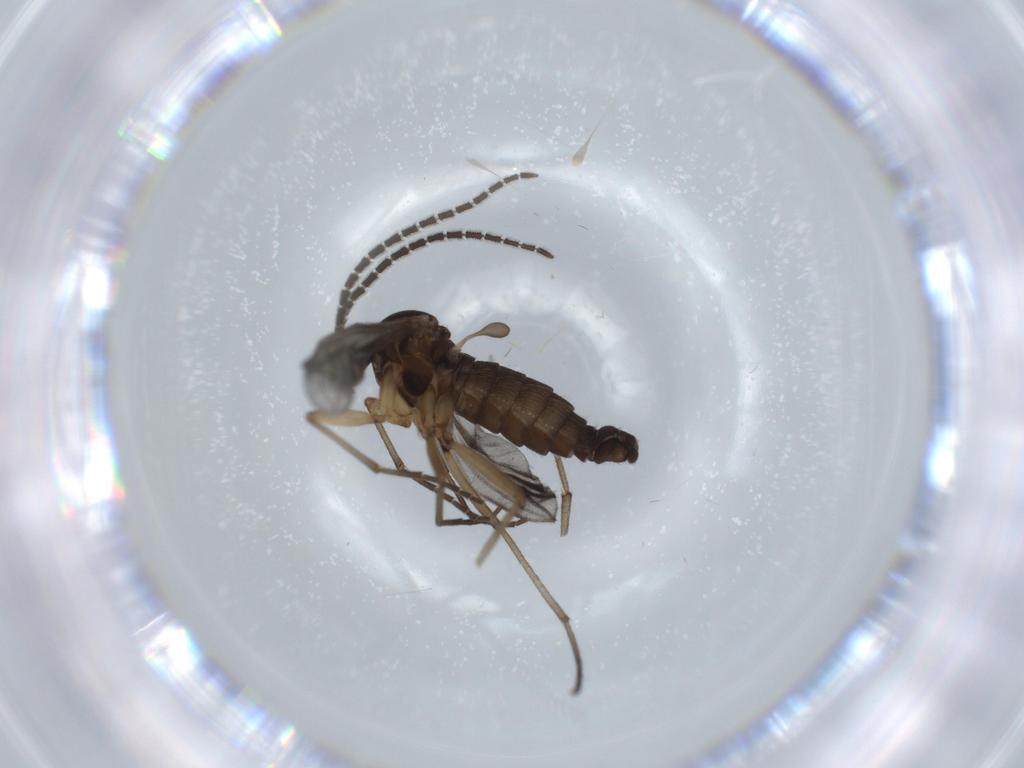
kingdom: Animalia
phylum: Arthropoda
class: Insecta
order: Diptera
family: Sciaridae
